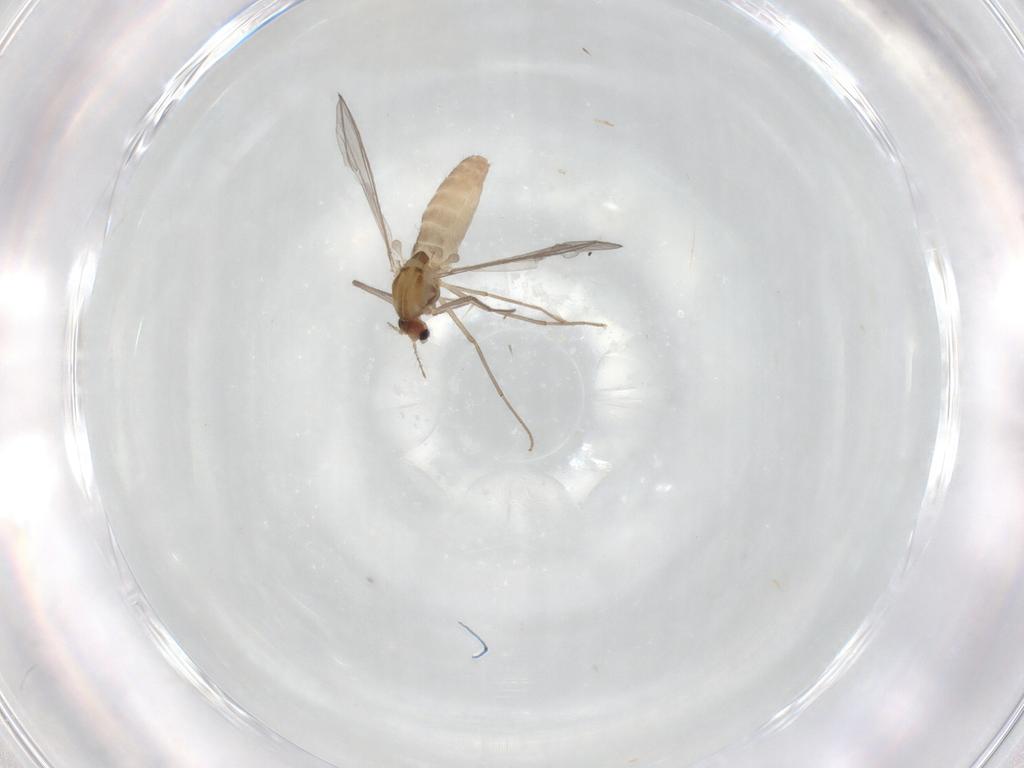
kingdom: Animalia
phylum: Arthropoda
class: Insecta
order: Diptera
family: Chironomidae
